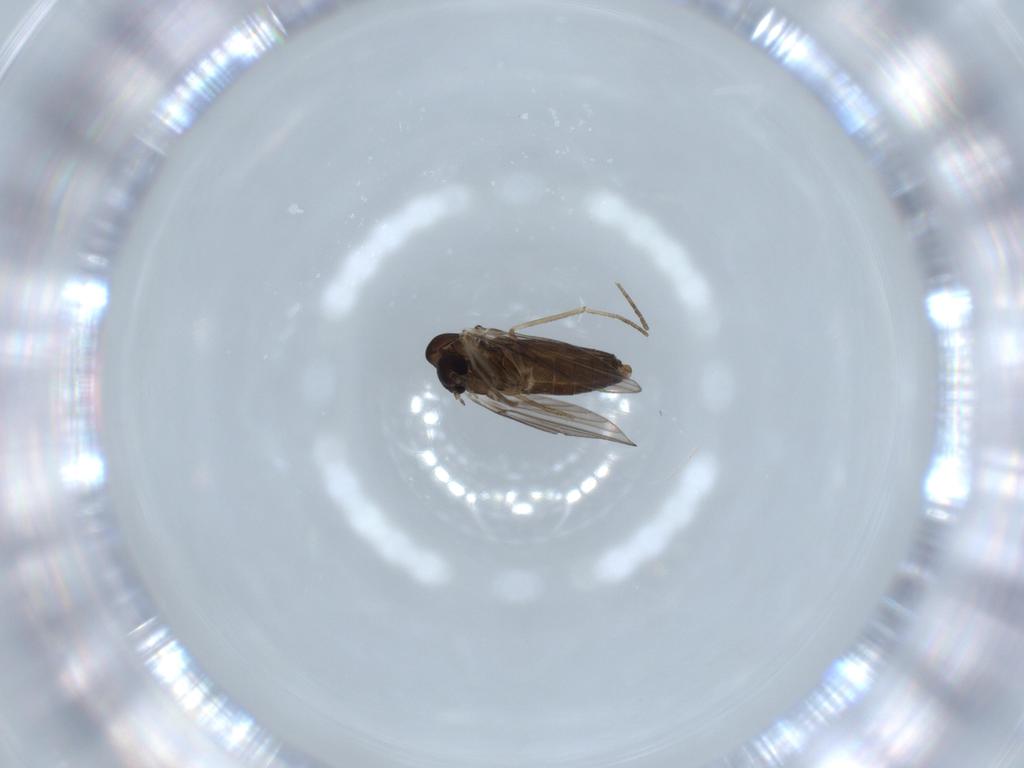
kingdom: Animalia
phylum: Arthropoda
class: Insecta
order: Diptera
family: Psychodidae
